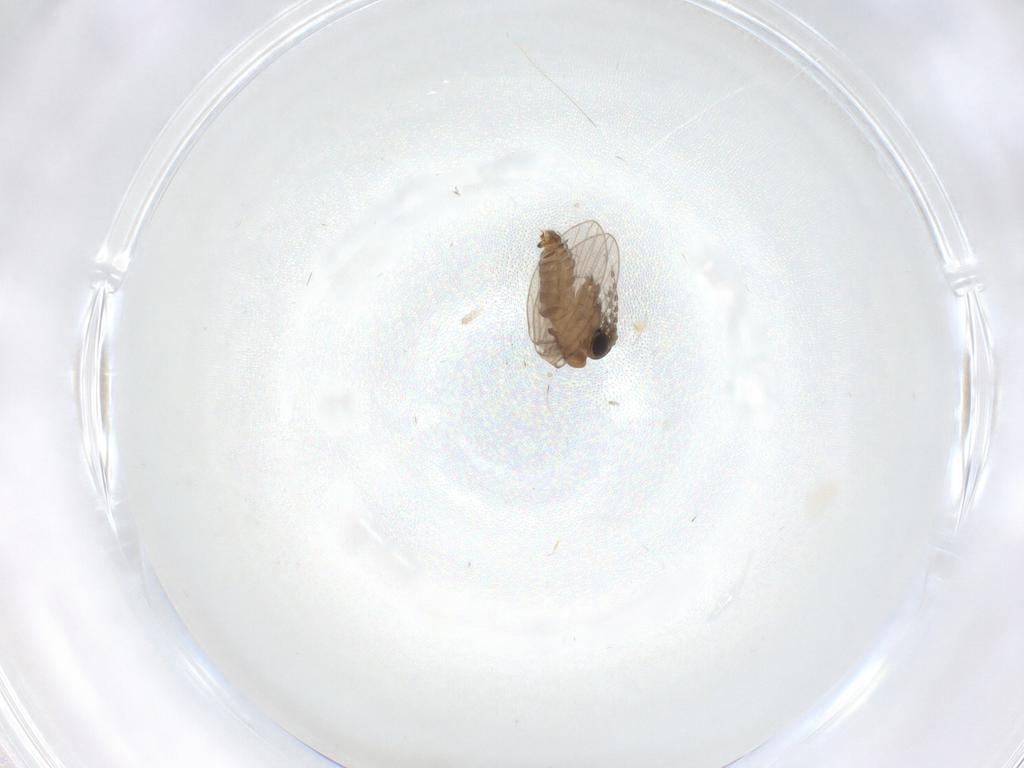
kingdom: Animalia
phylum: Arthropoda
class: Insecta
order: Diptera
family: Psychodidae
